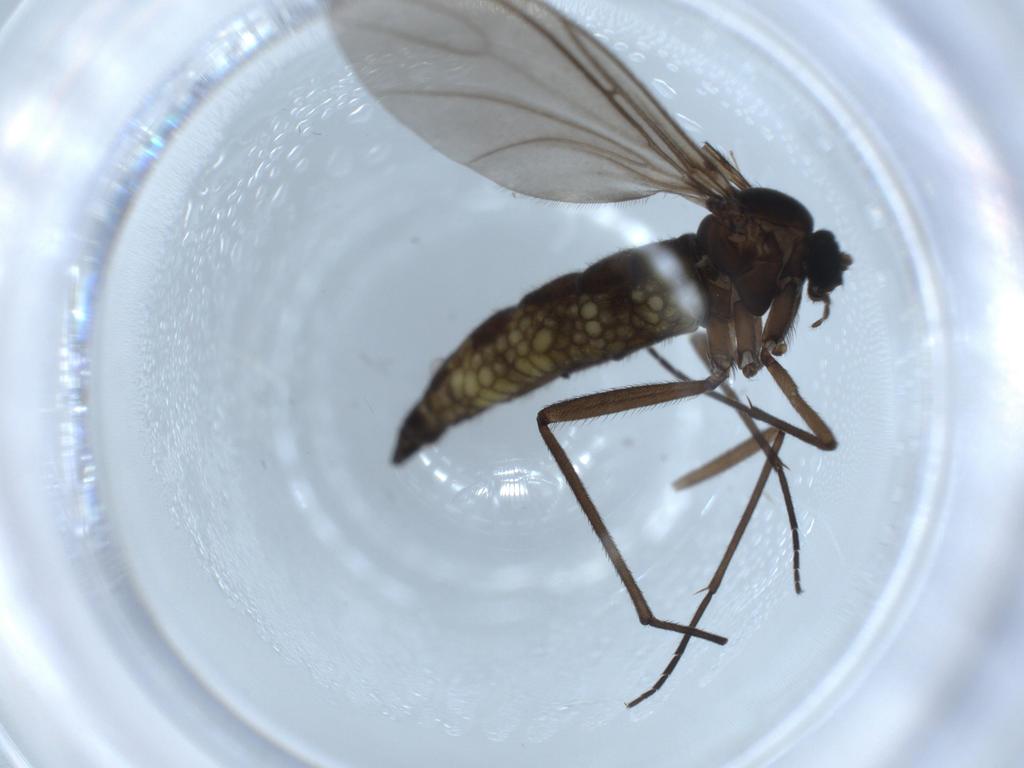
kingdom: Animalia
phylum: Arthropoda
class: Insecta
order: Diptera
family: Sciaridae
